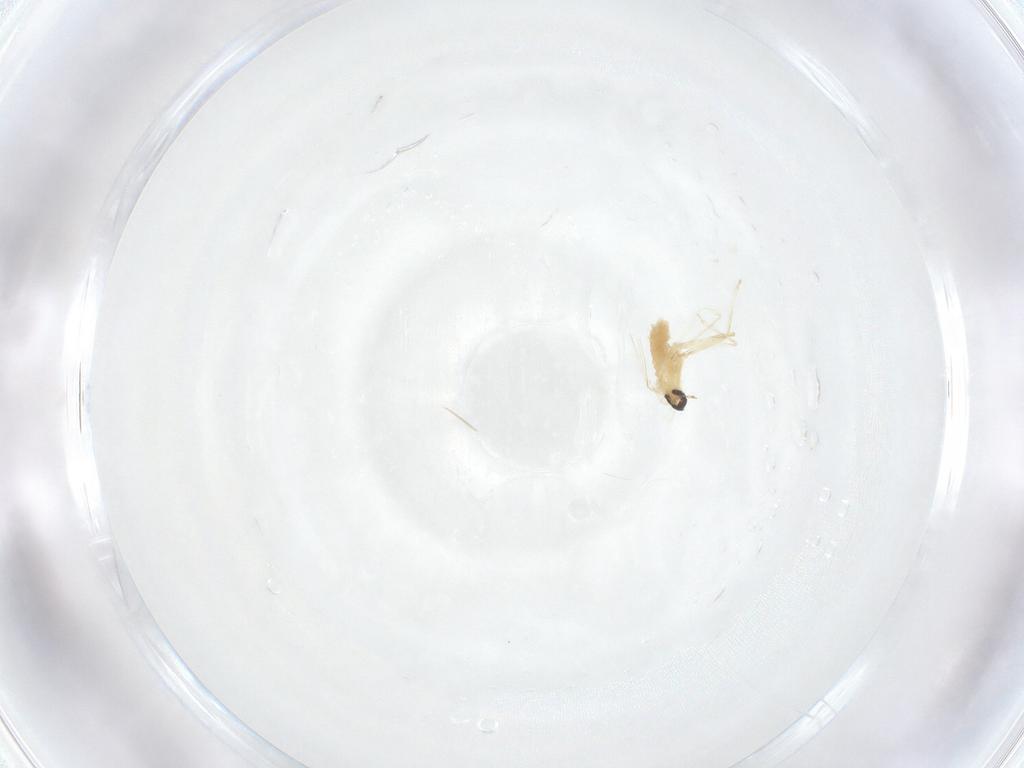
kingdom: Animalia
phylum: Arthropoda
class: Insecta
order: Diptera
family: Cecidomyiidae
